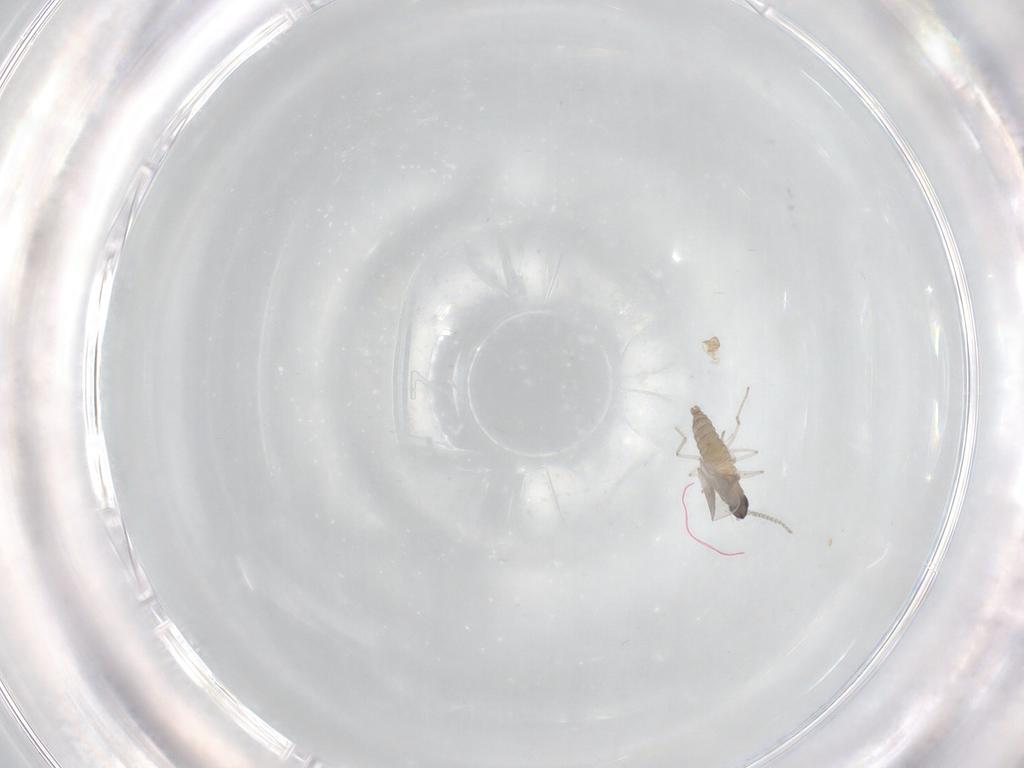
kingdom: Animalia
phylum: Arthropoda
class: Insecta
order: Diptera
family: Cecidomyiidae
